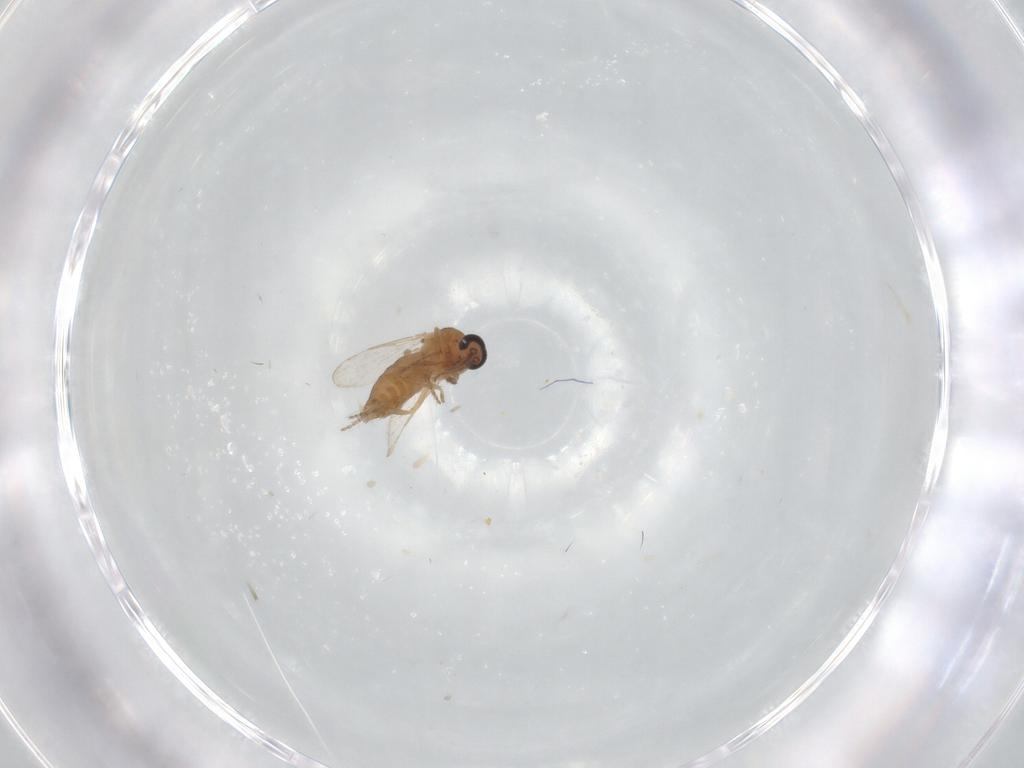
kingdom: Animalia
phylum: Arthropoda
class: Insecta
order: Diptera
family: Ceratopogonidae
